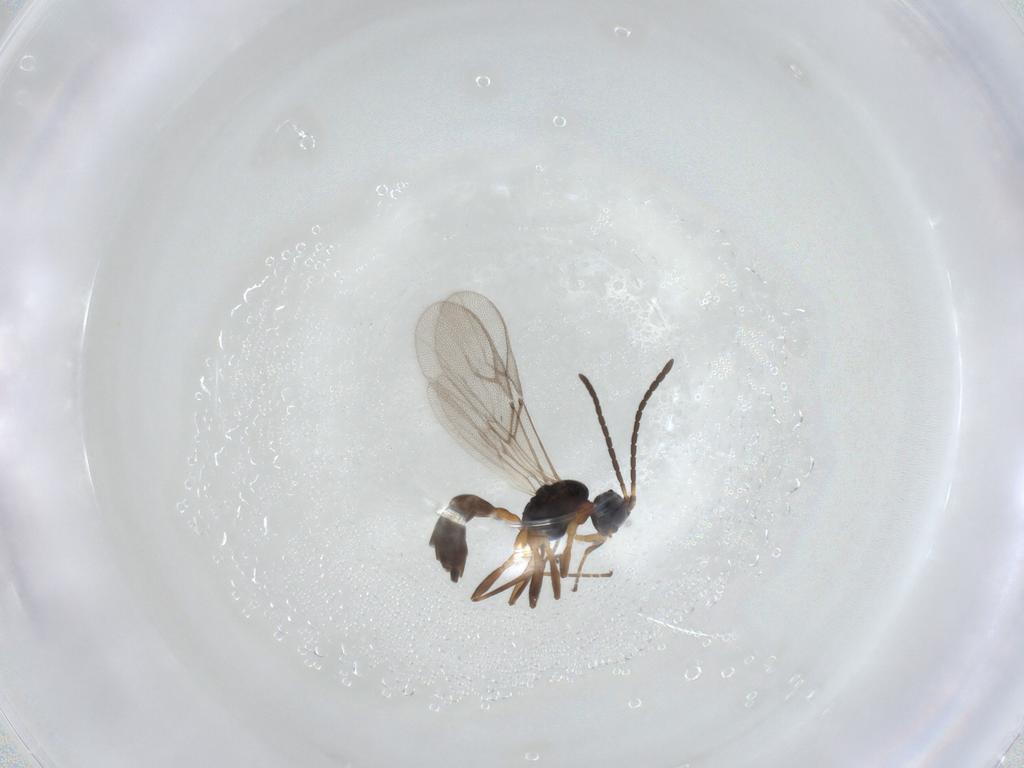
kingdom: Animalia
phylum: Arthropoda
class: Insecta
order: Hymenoptera
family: Braconidae
